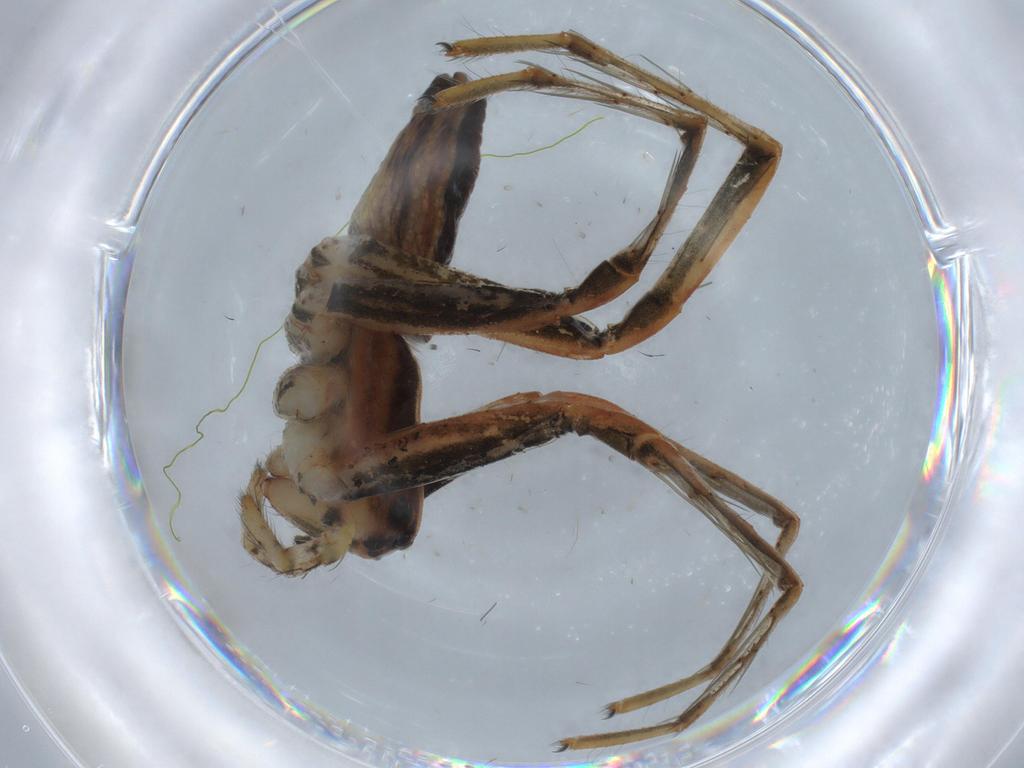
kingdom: Animalia
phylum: Arthropoda
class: Arachnida
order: Araneae
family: Pisauridae
